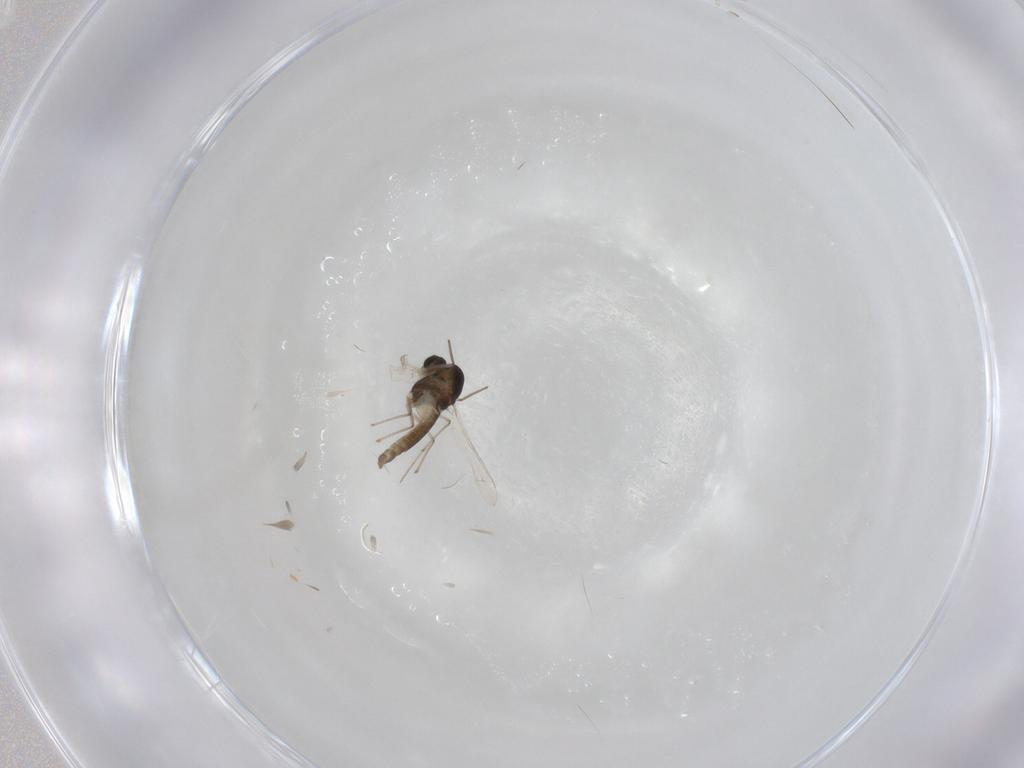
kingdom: Animalia
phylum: Arthropoda
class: Insecta
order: Diptera
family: Chironomidae
